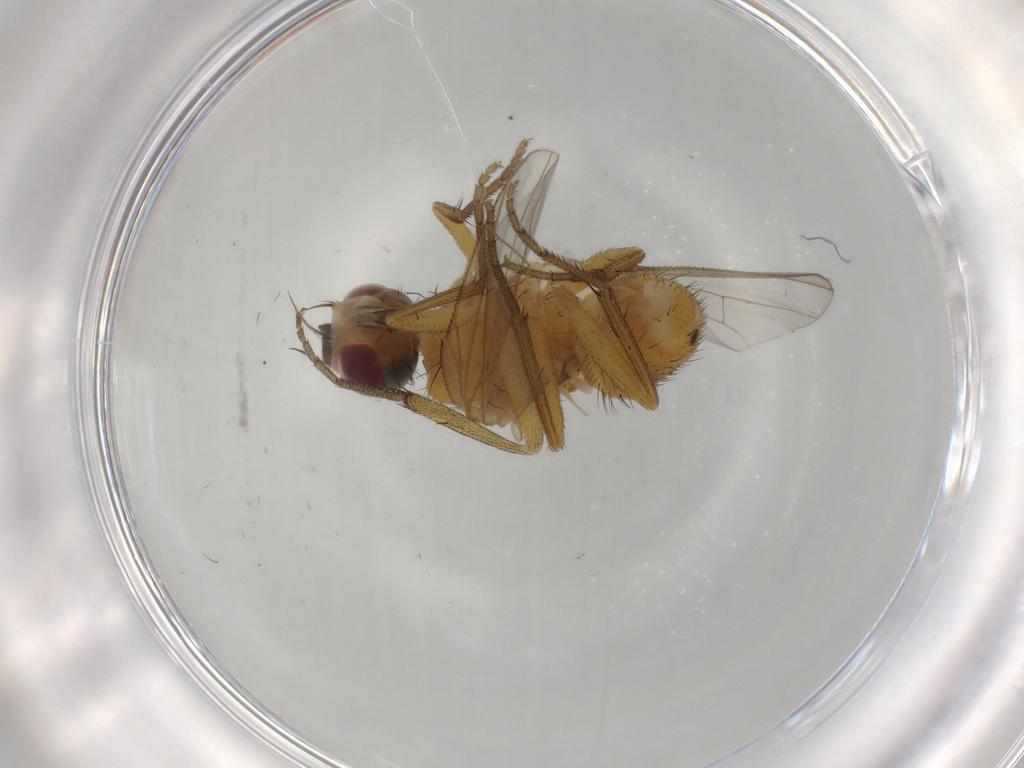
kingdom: Animalia
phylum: Arthropoda
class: Insecta
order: Diptera
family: Muscidae
